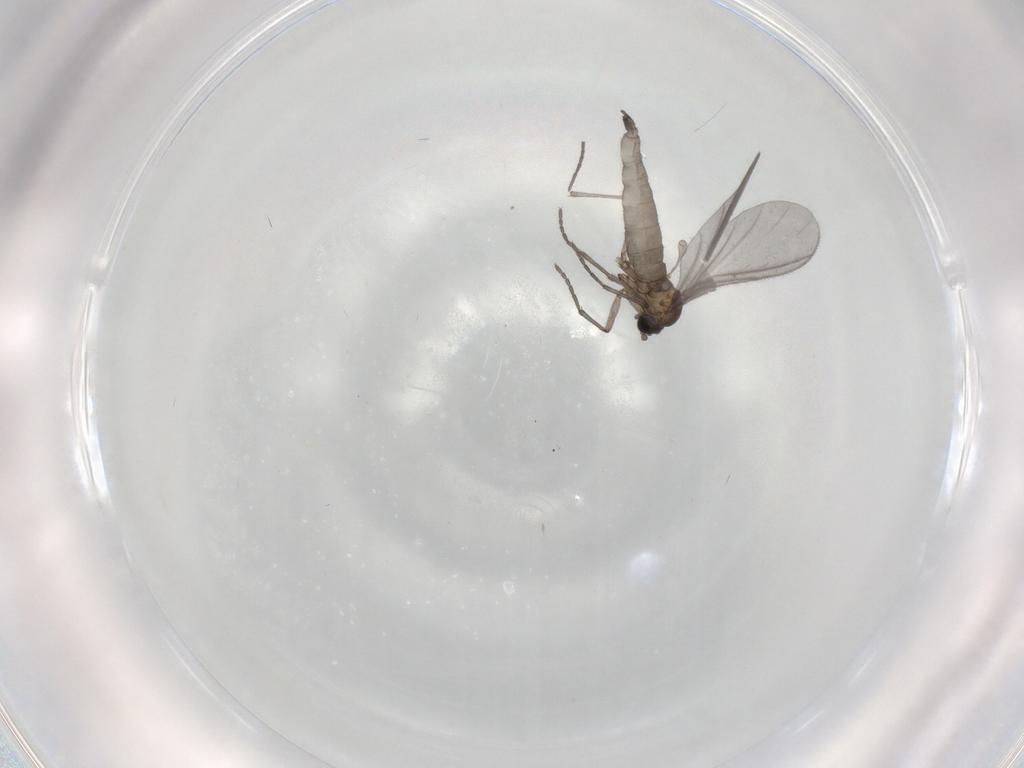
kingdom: Animalia
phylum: Arthropoda
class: Insecta
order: Diptera
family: Sciaridae
